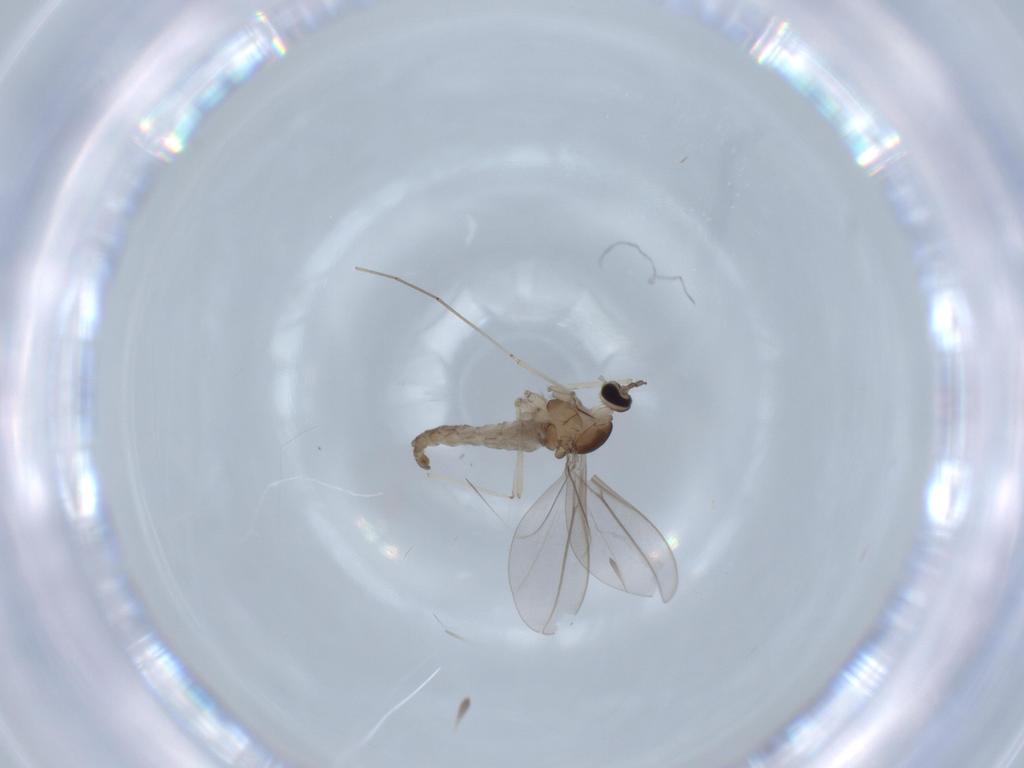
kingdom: Animalia
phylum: Arthropoda
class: Insecta
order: Diptera
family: Cecidomyiidae
